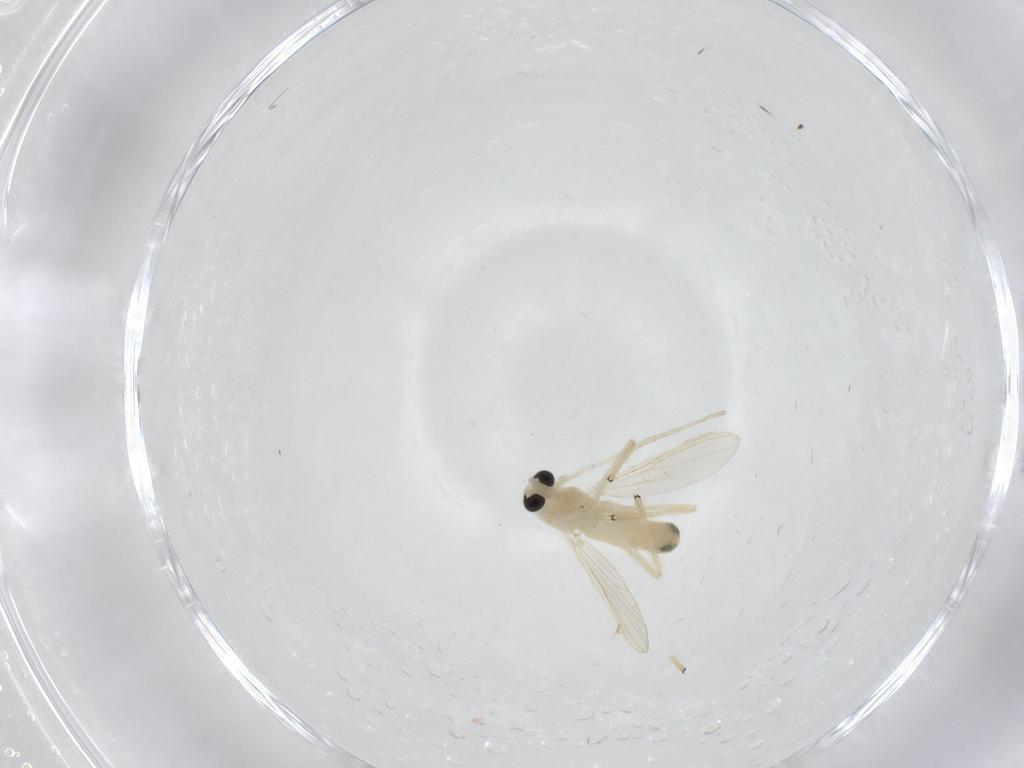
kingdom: Animalia
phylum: Arthropoda
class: Insecta
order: Diptera
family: Chironomidae
